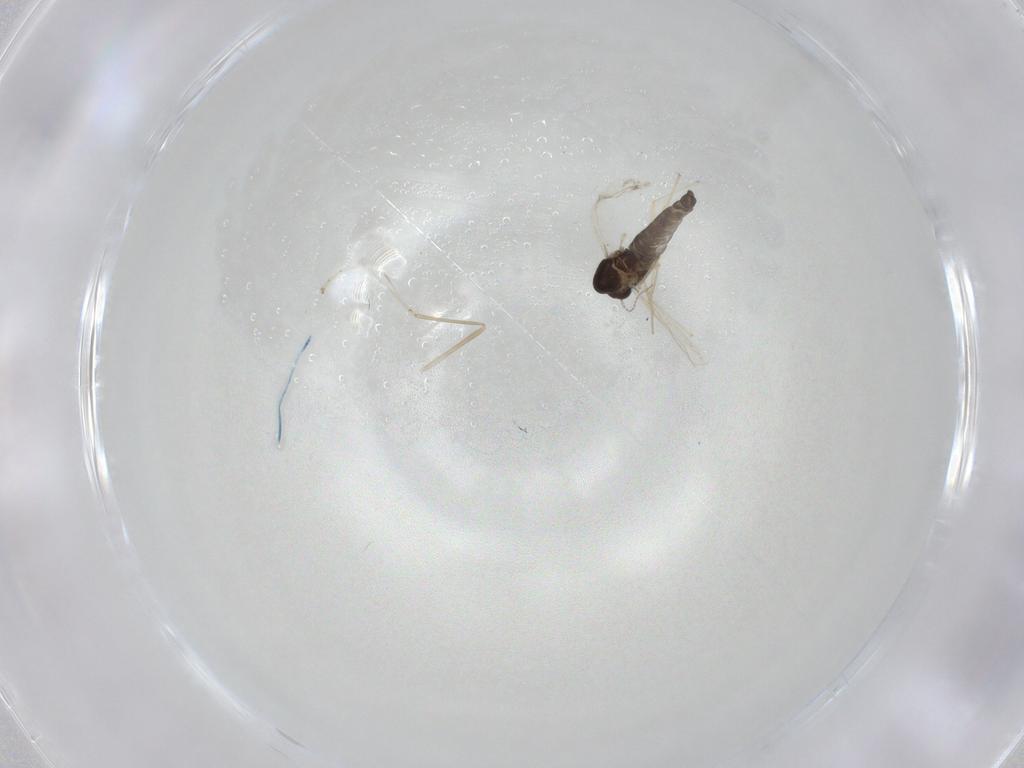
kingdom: Animalia
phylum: Arthropoda
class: Insecta
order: Diptera
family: Chironomidae
